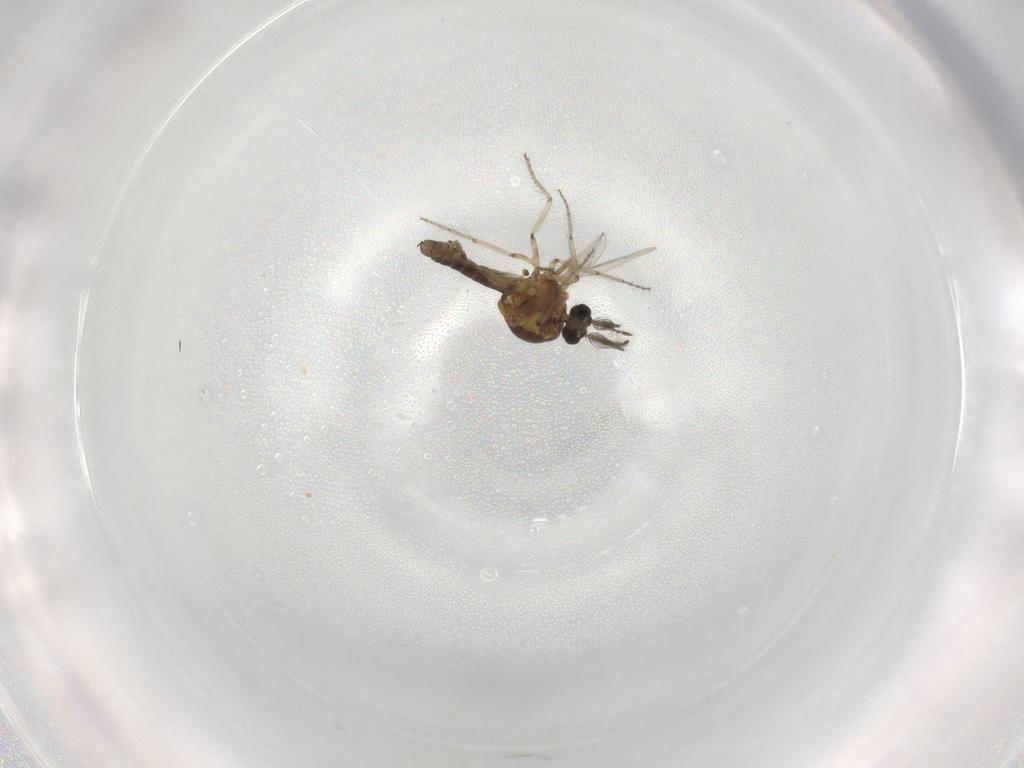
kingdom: Animalia
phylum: Arthropoda
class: Insecta
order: Diptera
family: Ceratopogonidae
